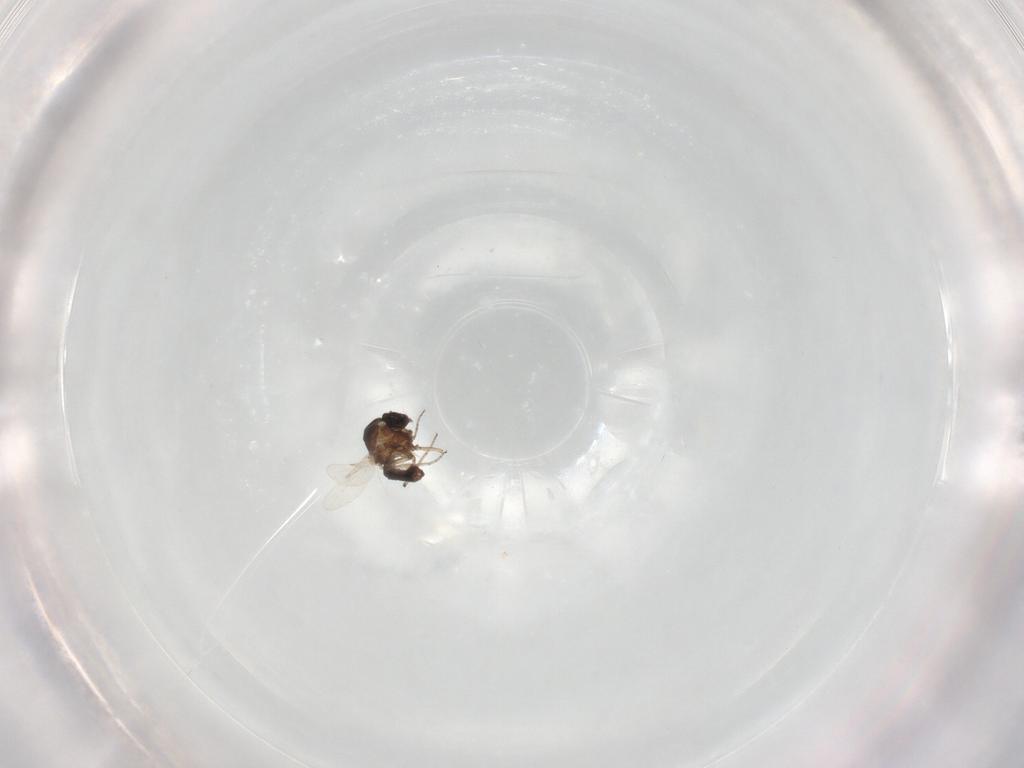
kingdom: Animalia
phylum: Arthropoda
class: Insecta
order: Diptera
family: Ceratopogonidae
